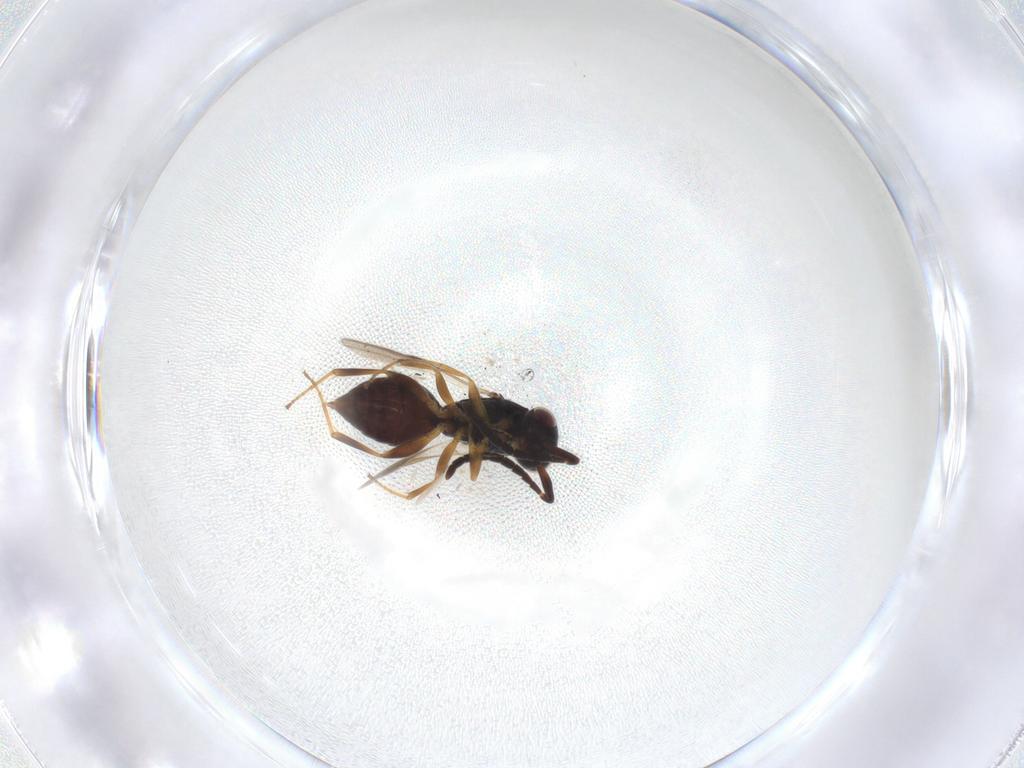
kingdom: Animalia
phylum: Arthropoda
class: Insecta
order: Hymenoptera
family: Megaspilidae
